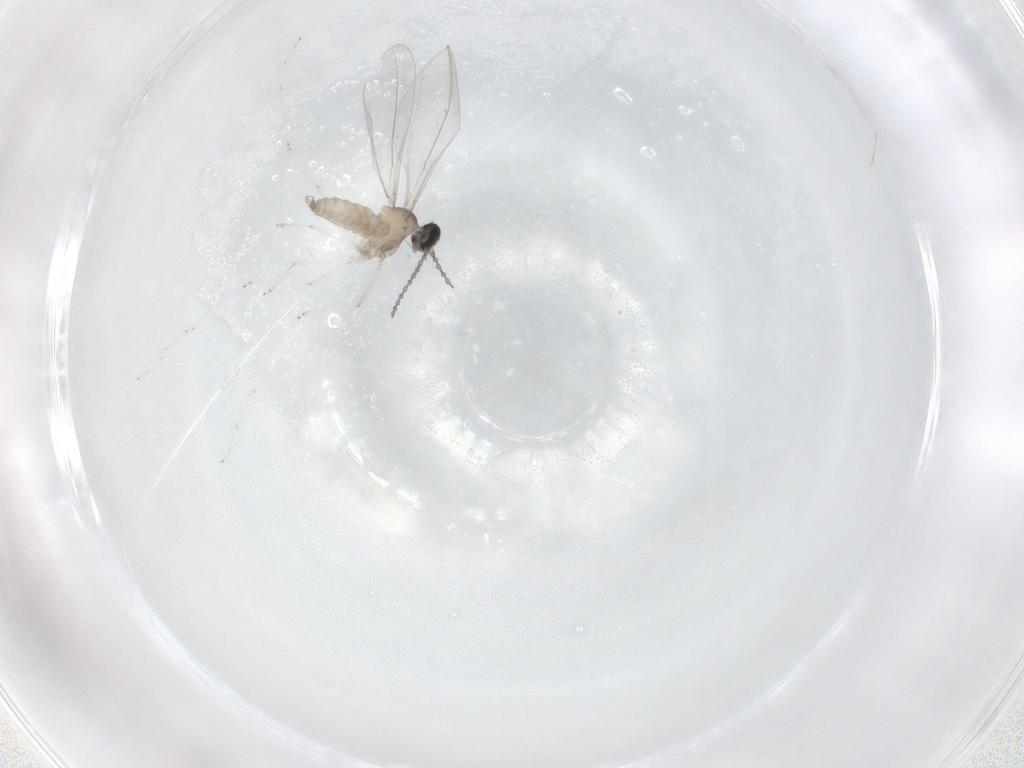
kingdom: Animalia
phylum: Arthropoda
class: Insecta
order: Diptera
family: Cecidomyiidae
